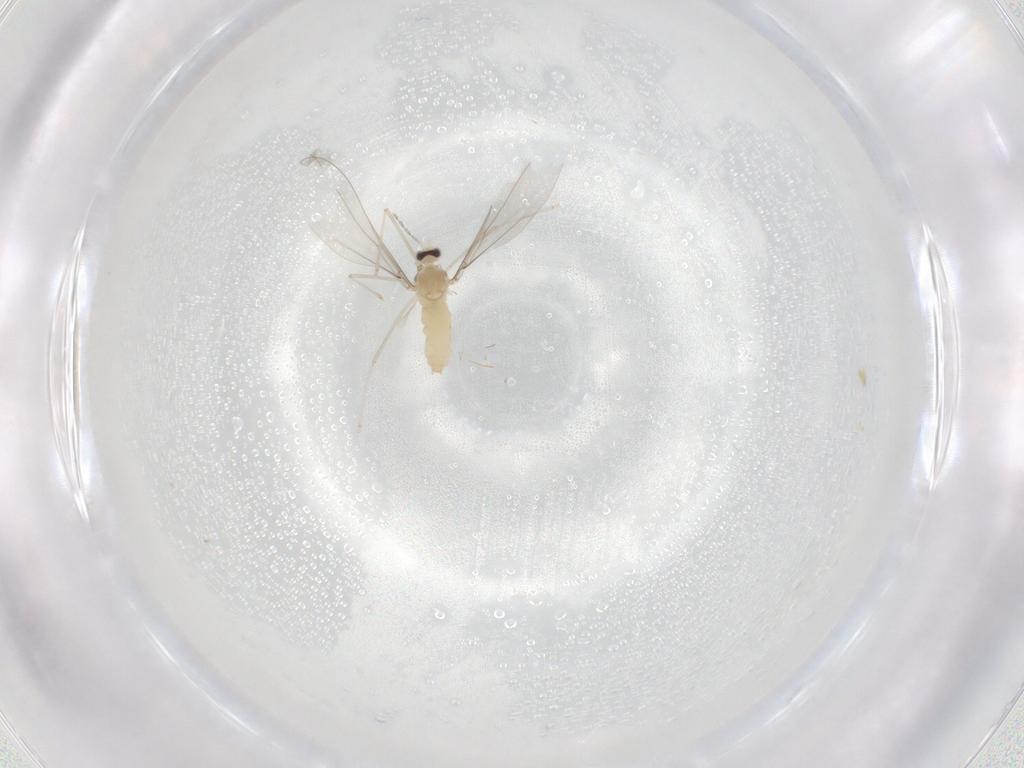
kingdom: Animalia
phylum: Arthropoda
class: Insecta
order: Diptera
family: Cecidomyiidae
